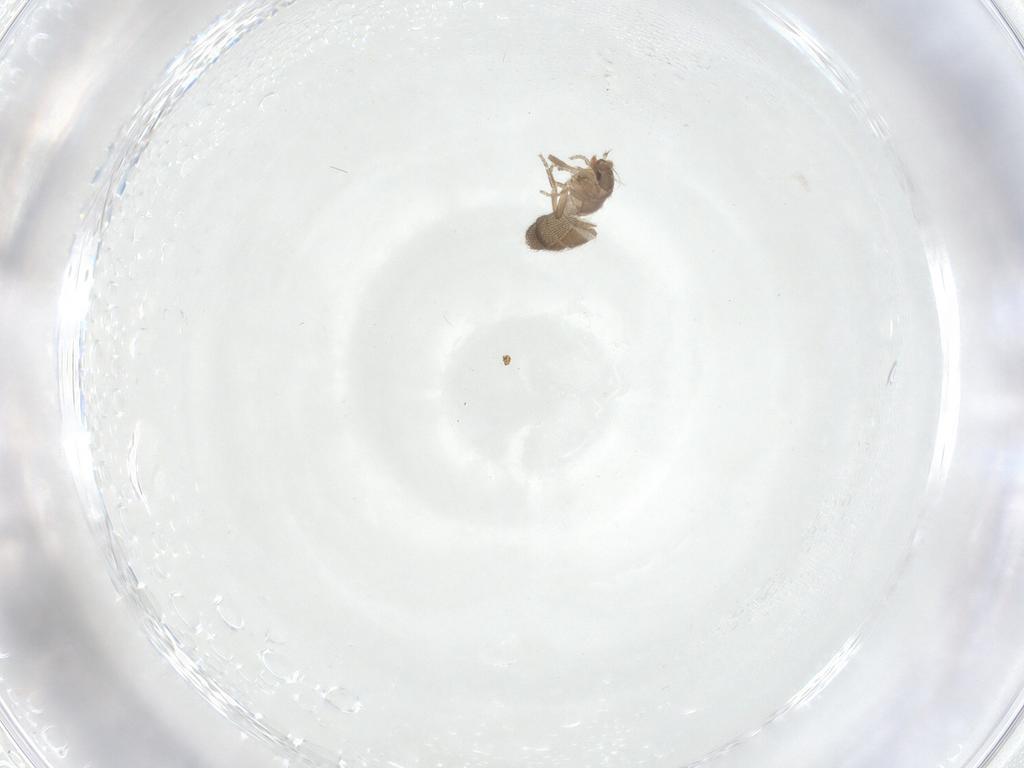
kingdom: Animalia
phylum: Arthropoda
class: Insecta
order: Diptera
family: Phoridae
